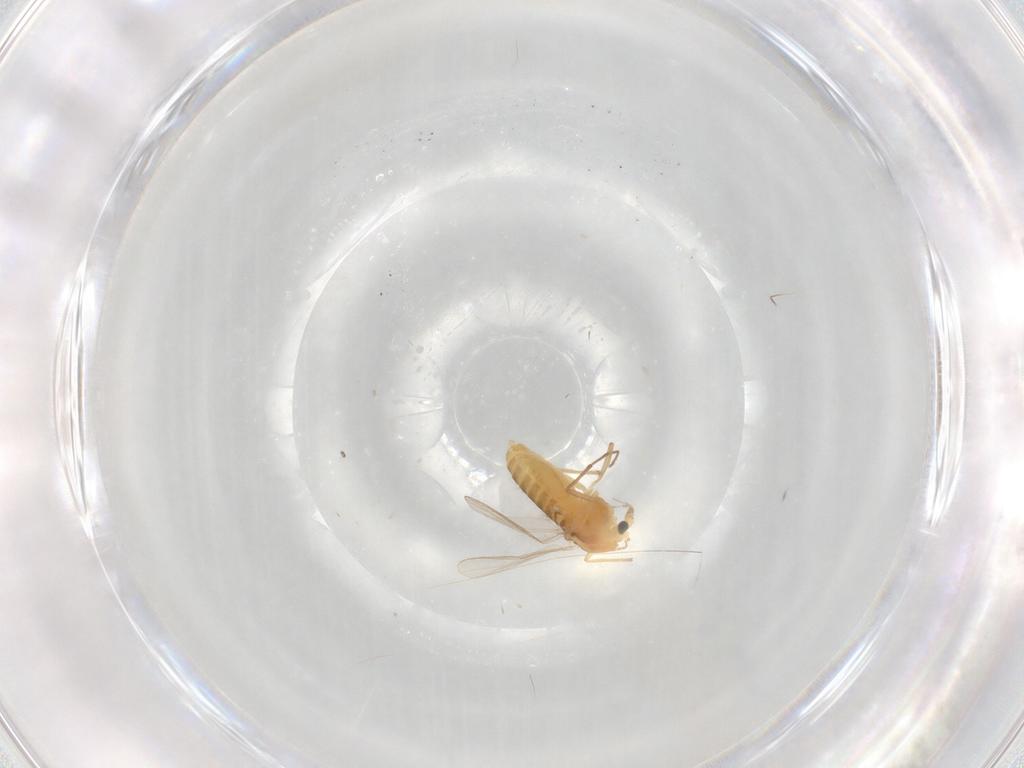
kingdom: Animalia
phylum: Arthropoda
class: Insecta
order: Diptera
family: Chironomidae
